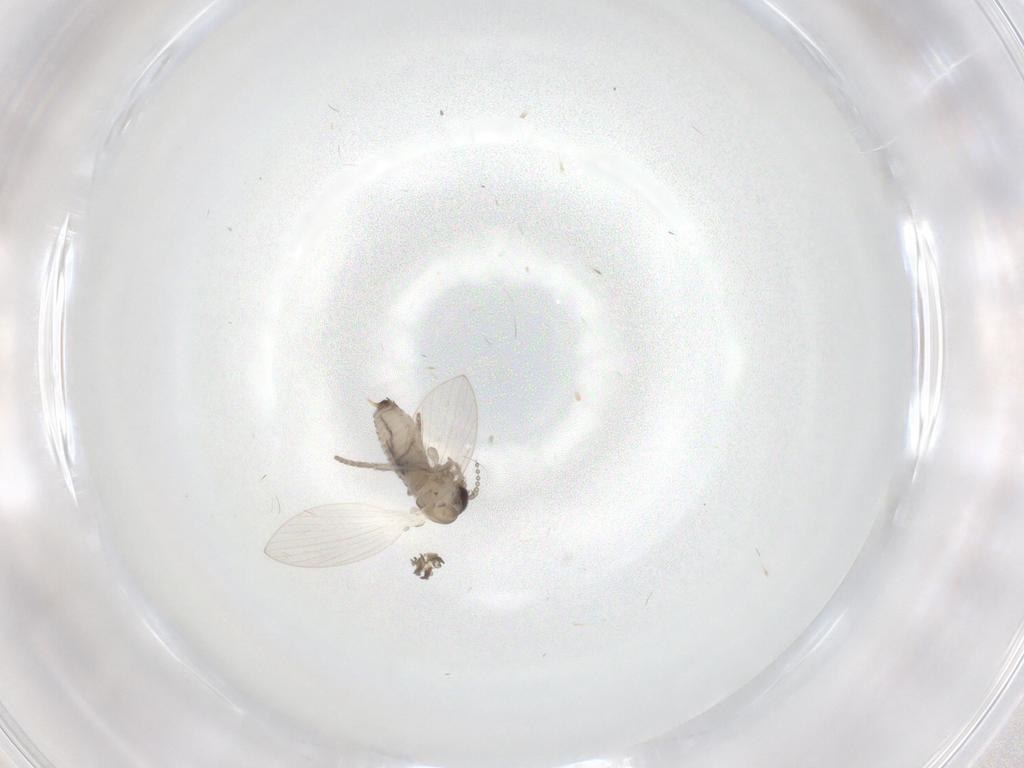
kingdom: Animalia
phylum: Arthropoda
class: Insecta
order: Diptera
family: Psychodidae
